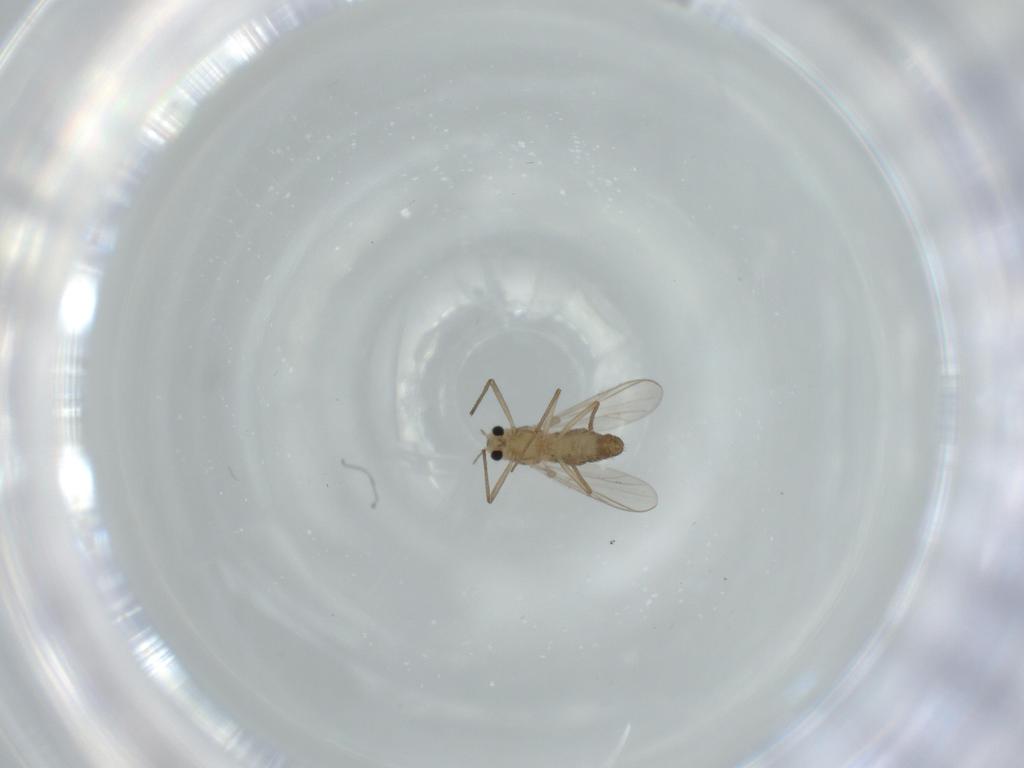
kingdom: Animalia
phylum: Arthropoda
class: Insecta
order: Diptera
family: Chironomidae
